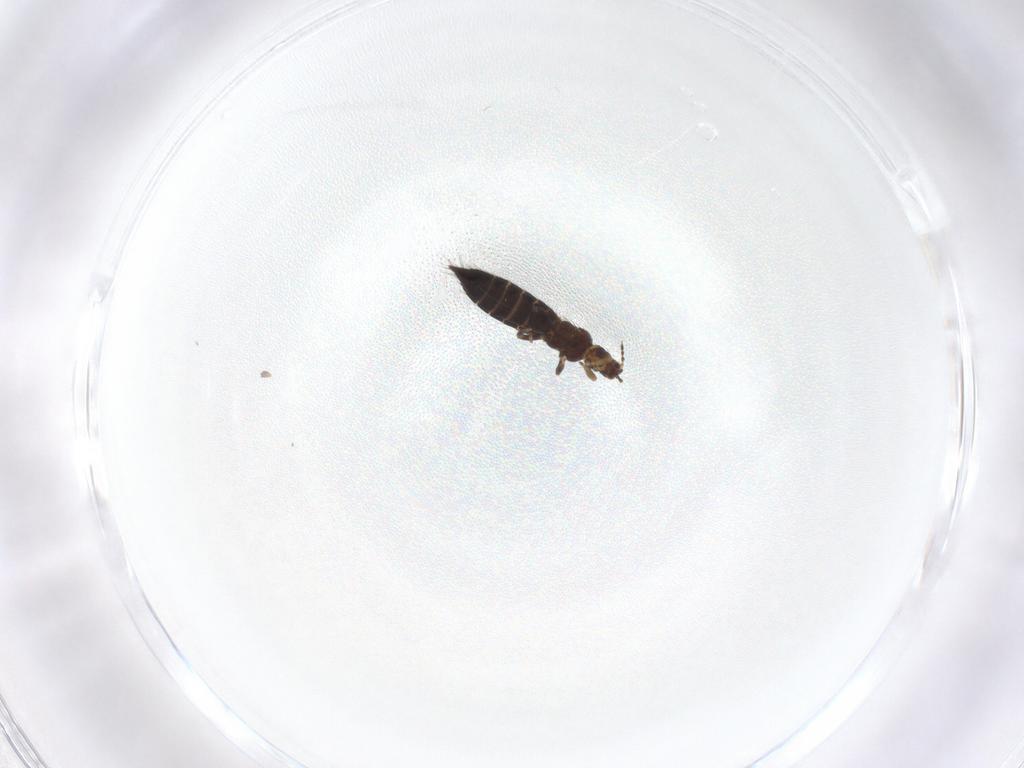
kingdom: Animalia
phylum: Arthropoda
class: Insecta
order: Thysanoptera
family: Thripidae
